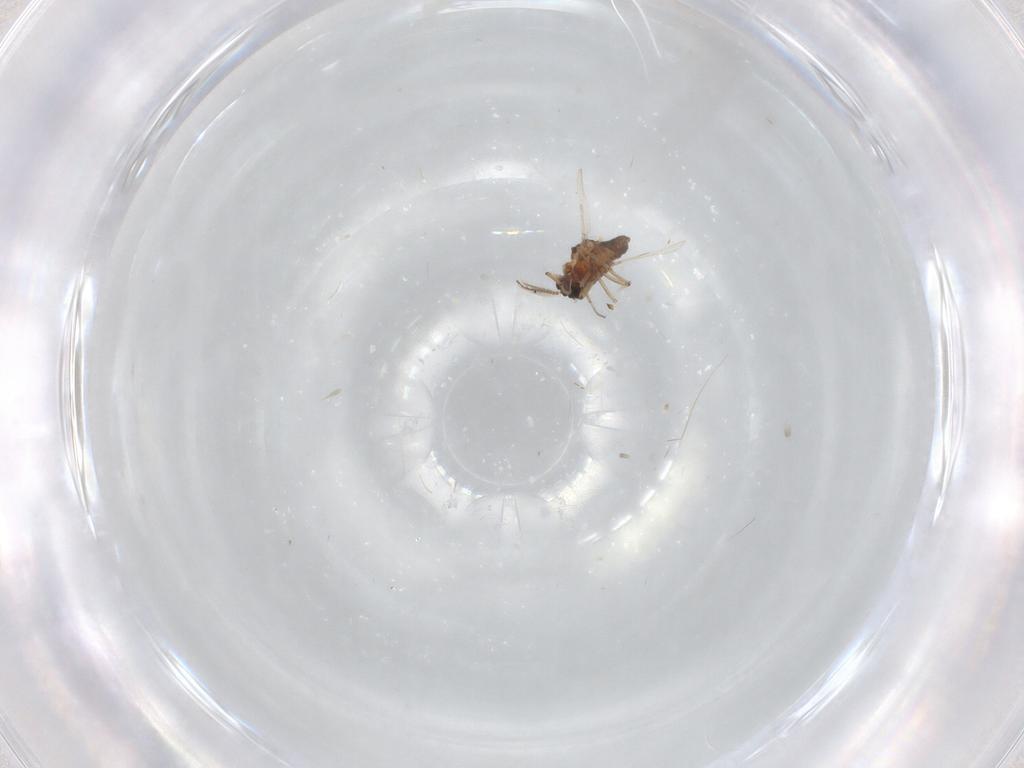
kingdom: Animalia
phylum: Arthropoda
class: Insecta
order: Diptera
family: Ceratopogonidae
